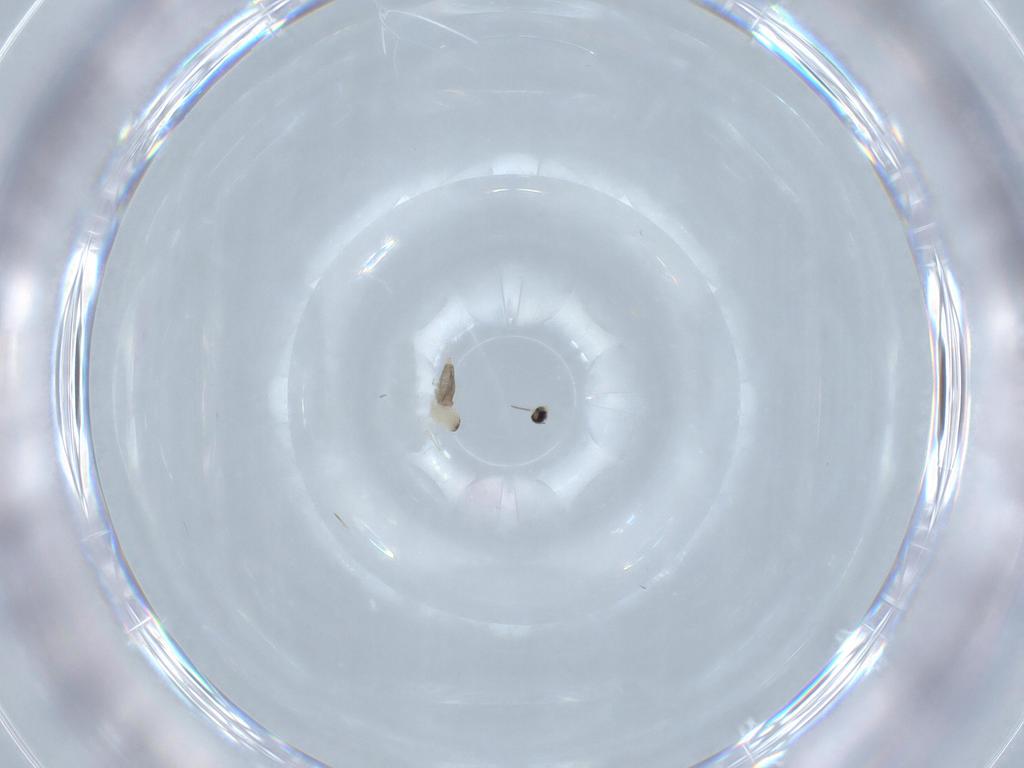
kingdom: Animalia
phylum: Arthropoda
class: Insecta
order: Diptera
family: Cecidomyiidae
